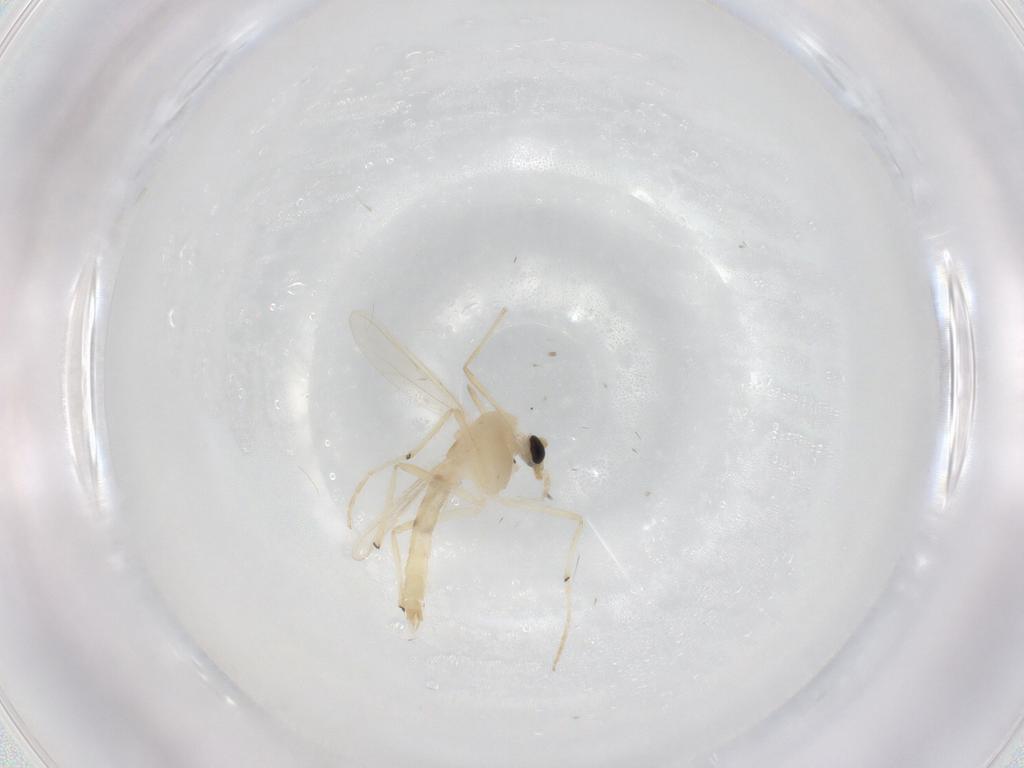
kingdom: Animalia
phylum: Arthropoda
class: Insecta
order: Diptera
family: Chironomidae
